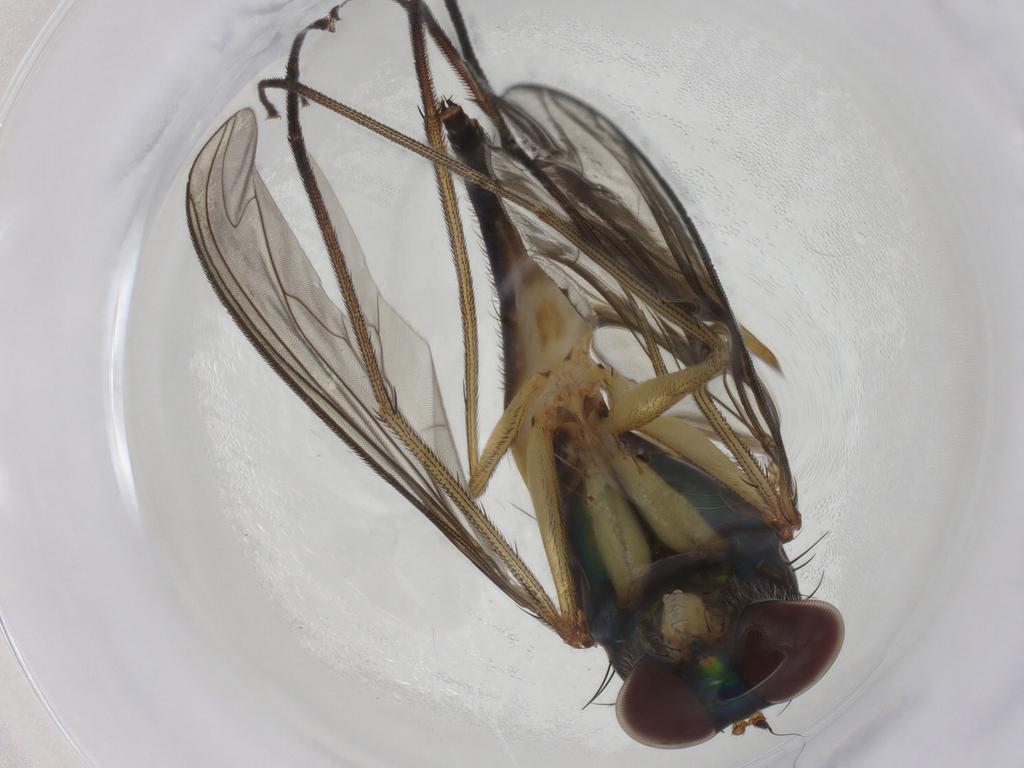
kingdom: Animalia
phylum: Arthropoda
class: Insecta
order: Diptera
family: Dolichopodidae
